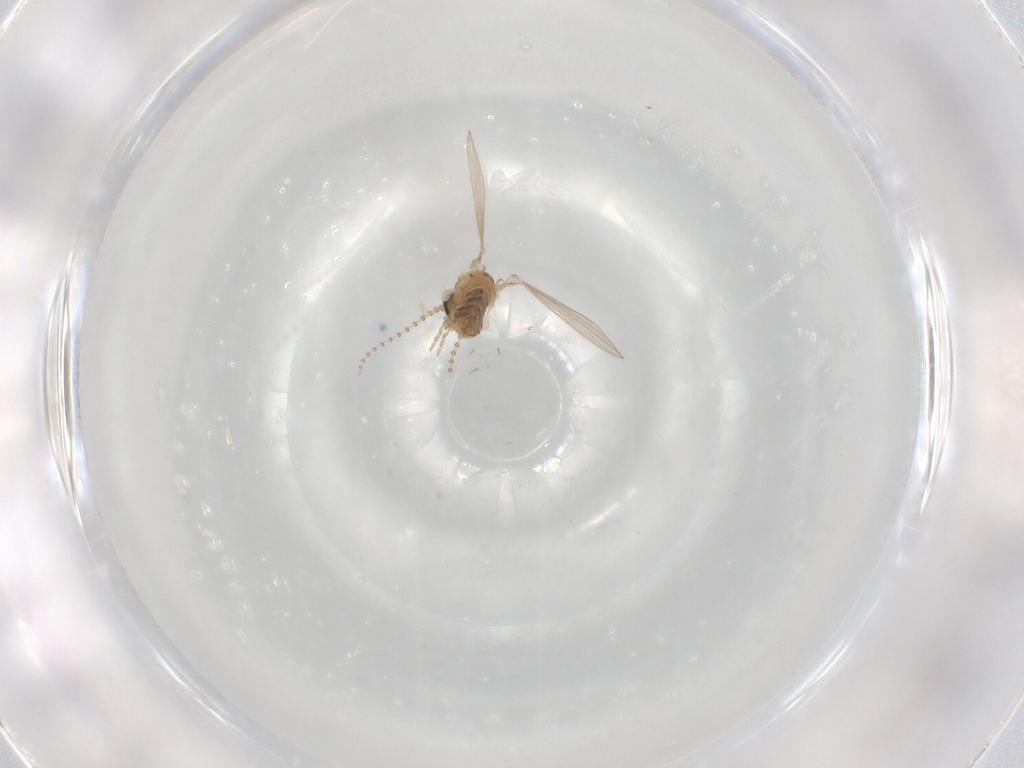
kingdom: Animalia
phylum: Arthropoda
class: Insecta
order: Diptera
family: Psychodidae
